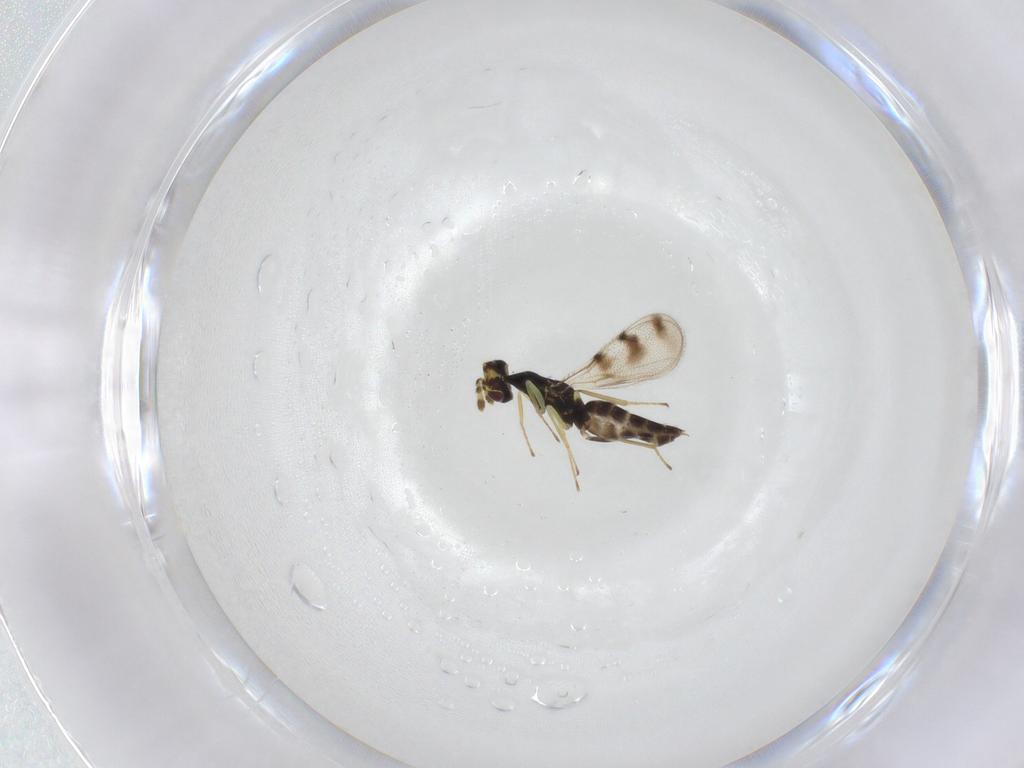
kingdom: Animalia
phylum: Arthropoda
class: Insecta
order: Hymenoptera
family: Eulophidae
